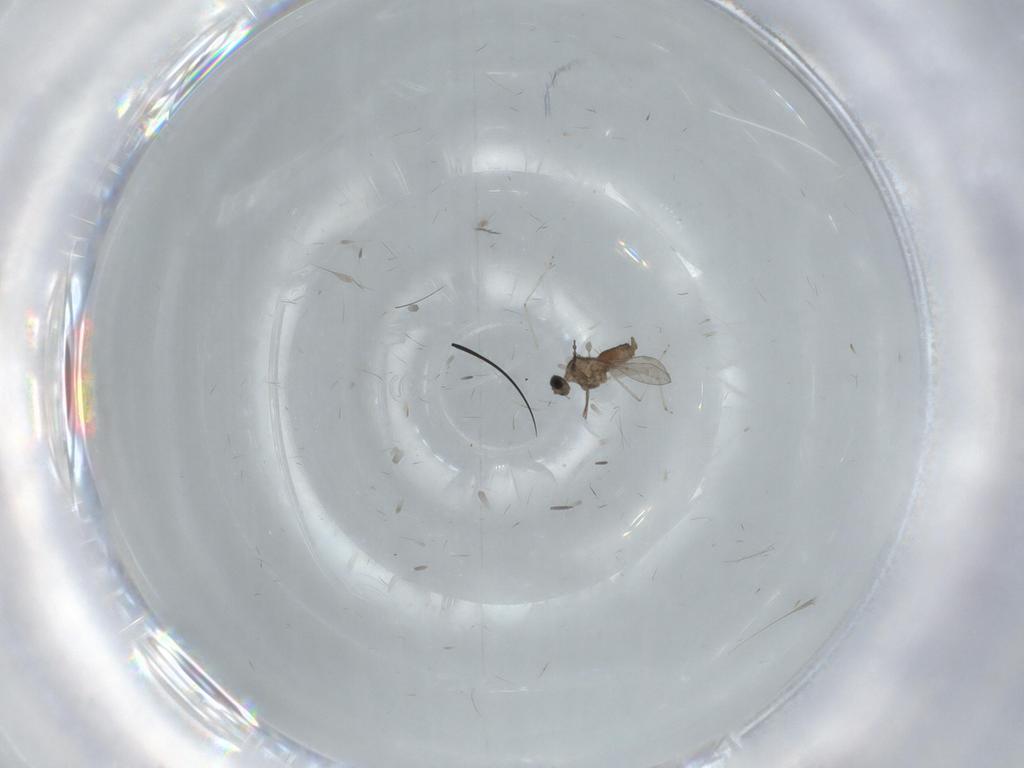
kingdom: Animalia
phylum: Arthropoda
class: Insecta
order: Diptera
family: Cecidomyiidae
